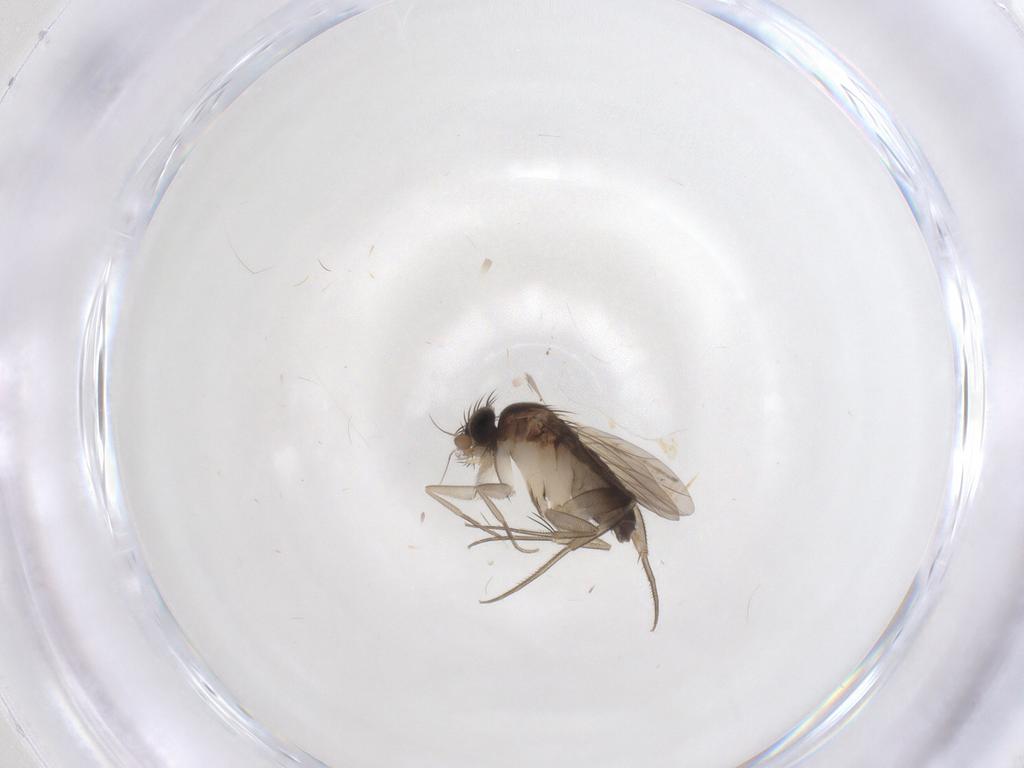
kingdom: Animalia
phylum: Arthropoda
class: Insecta
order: Diptera
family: Phoridae
